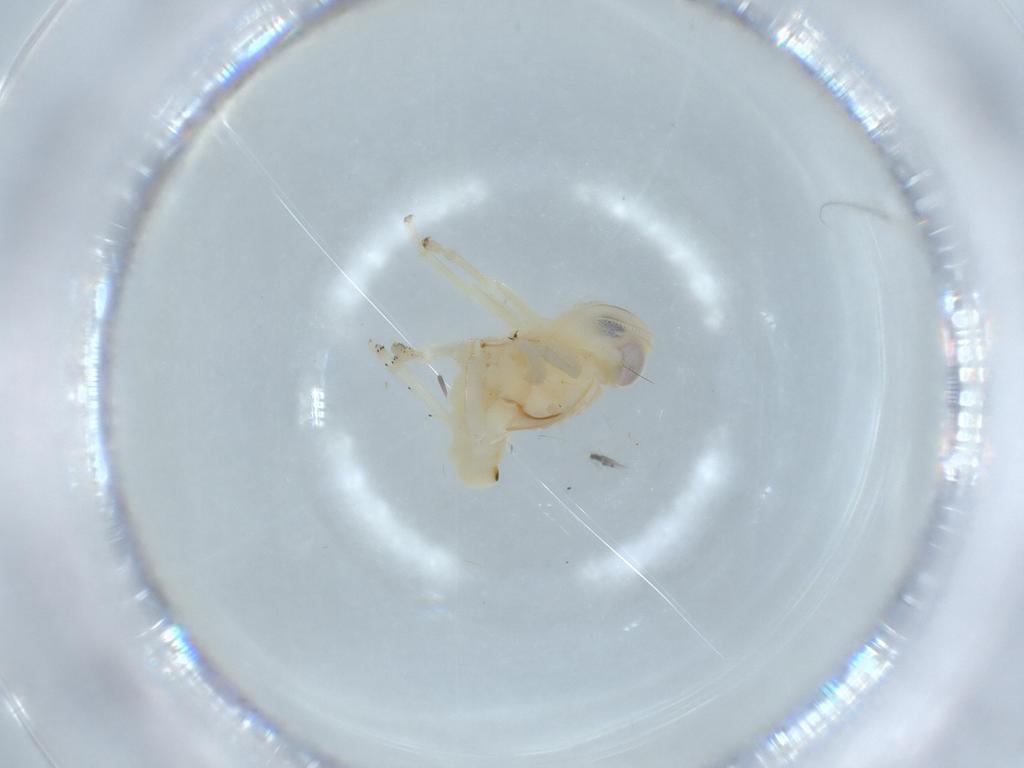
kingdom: Animalia
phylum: Arthropoda
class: Insecta
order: Hemiptera
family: Nogodinidae
